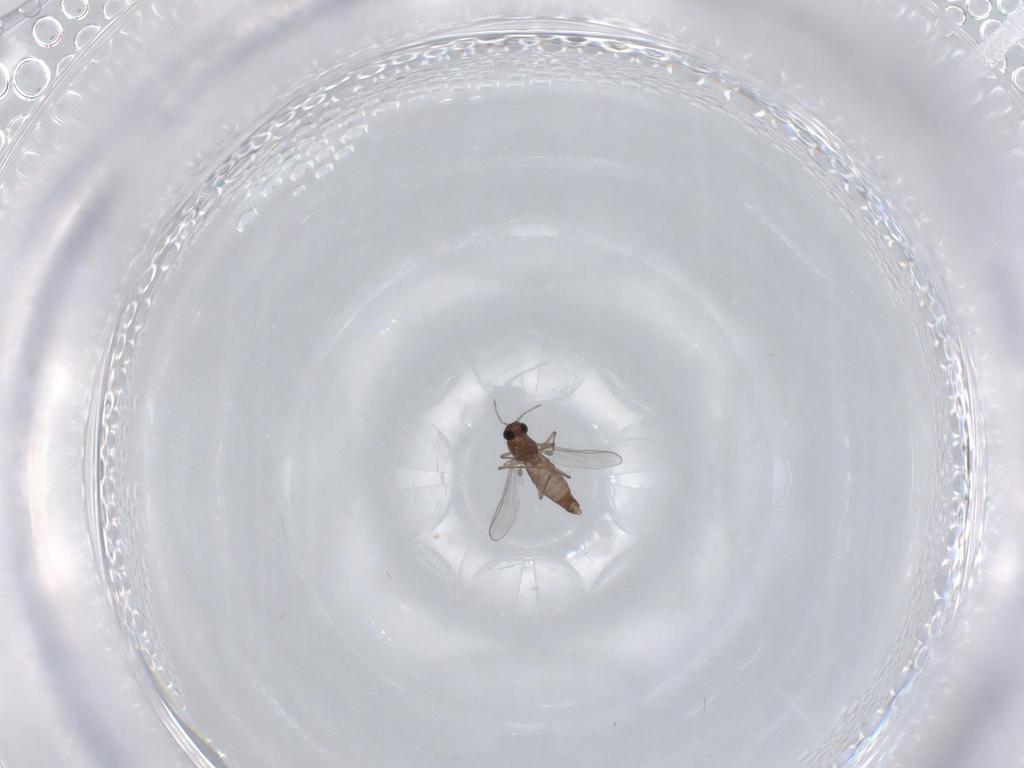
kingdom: Animalia
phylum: Arthropoda
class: Insecta
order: Diptera
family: Chironomidae
